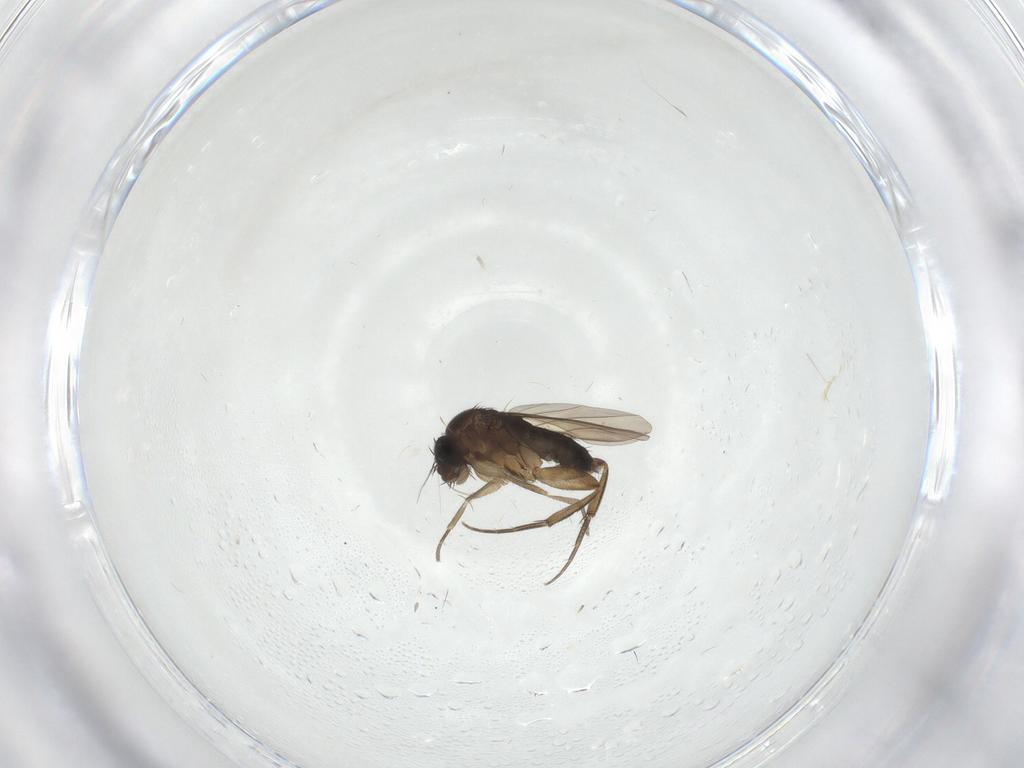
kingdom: Animalia
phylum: Arthropoda
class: Insecta
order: Diptera
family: Phoridae
